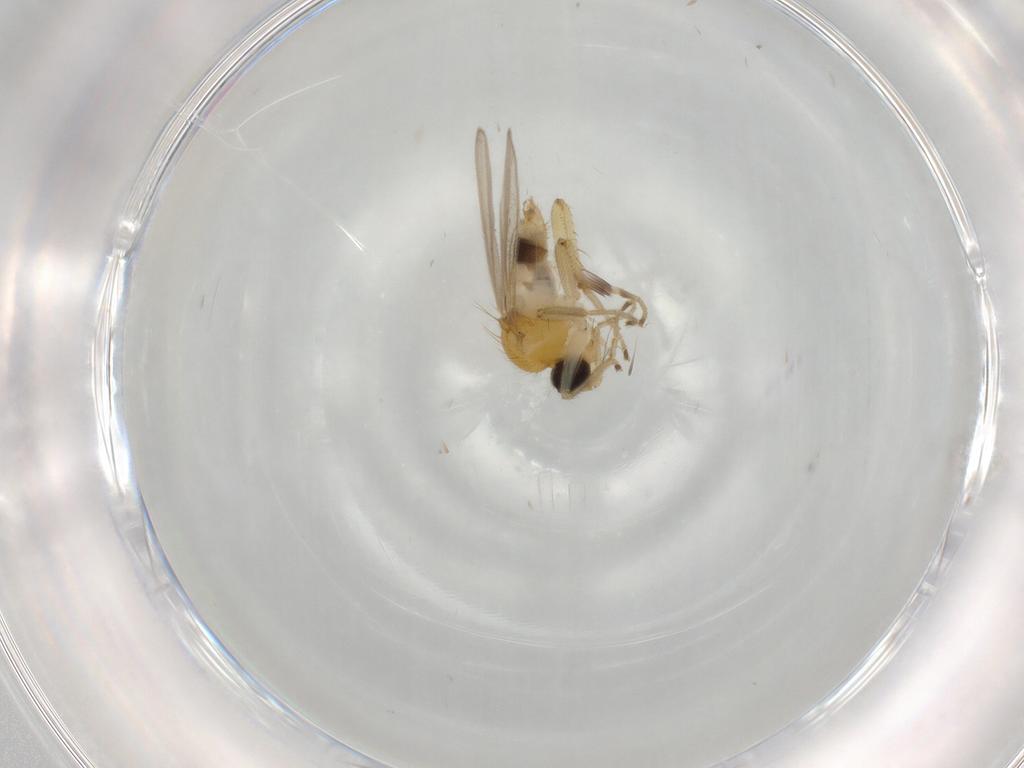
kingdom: Animalia
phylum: Arthropoda
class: Insecta
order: Diptera
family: Hybotidae
